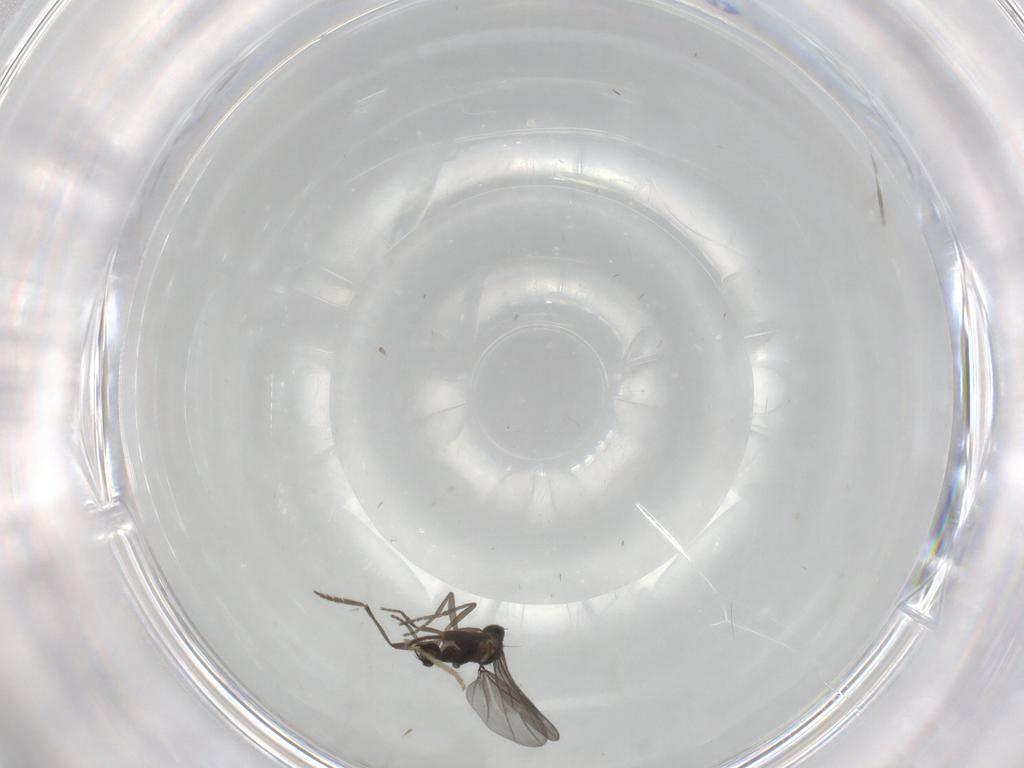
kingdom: Animalia
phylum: Arthropoda
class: Insecta
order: Diptera
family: Phoridae
